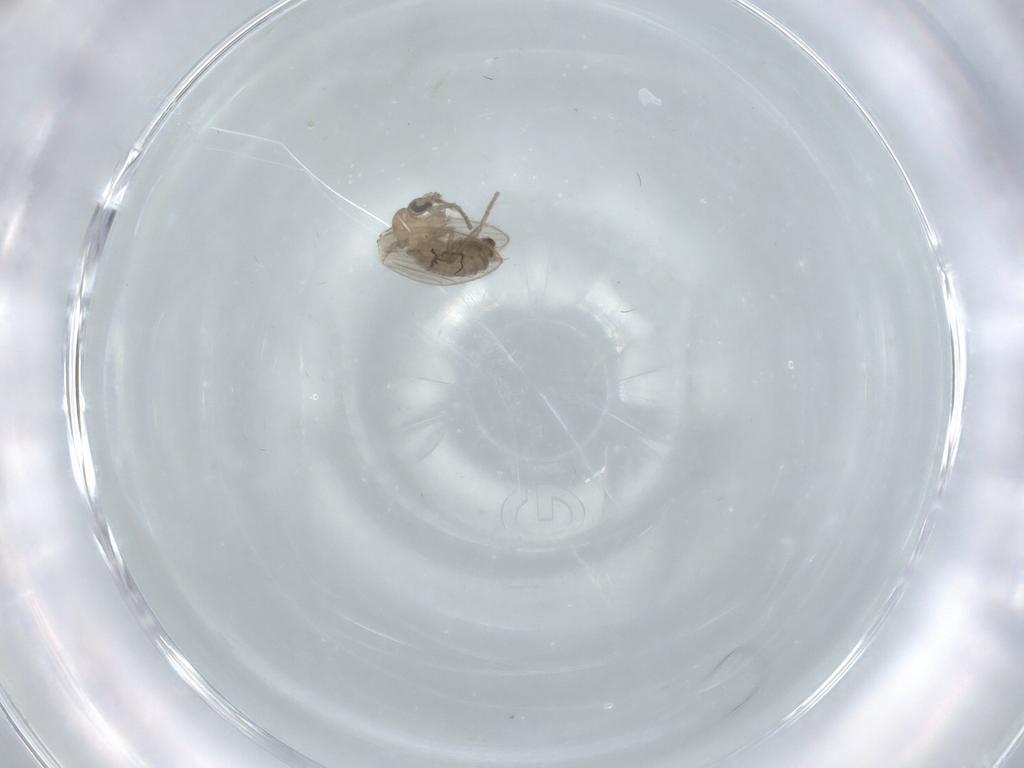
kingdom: Animalia
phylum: Arthropoda
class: Insecta
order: Diptera
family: Psychodidae
